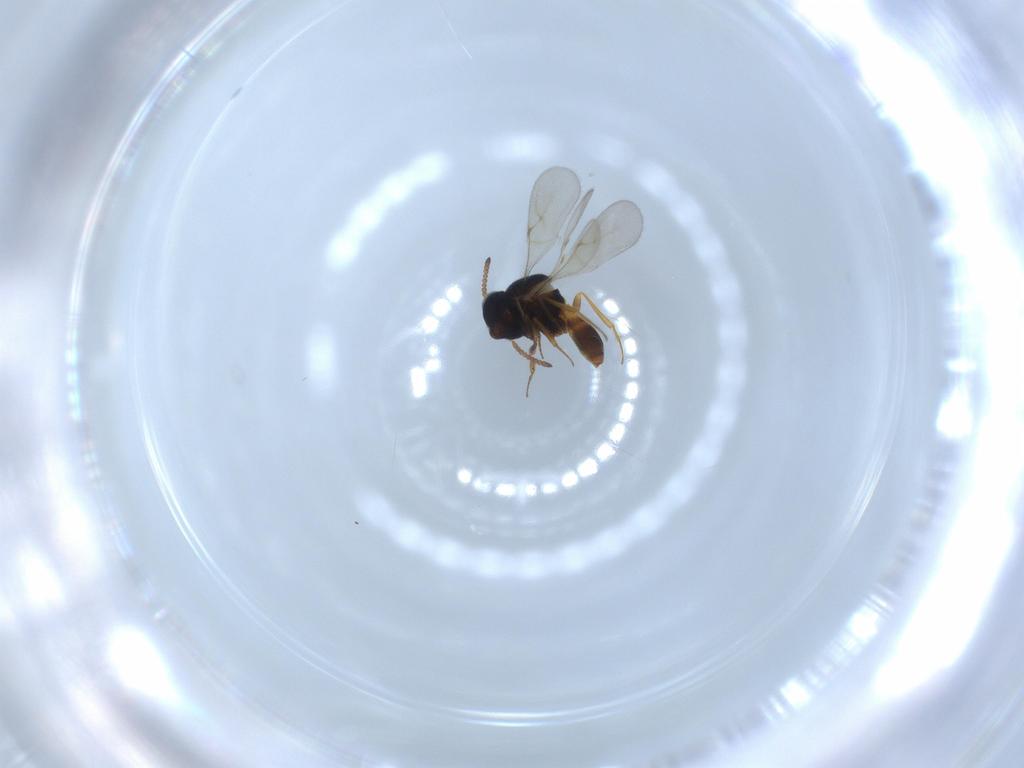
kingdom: Animalia
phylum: Arthropoda
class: Insecta
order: Hymenoptera
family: Scelionidae
